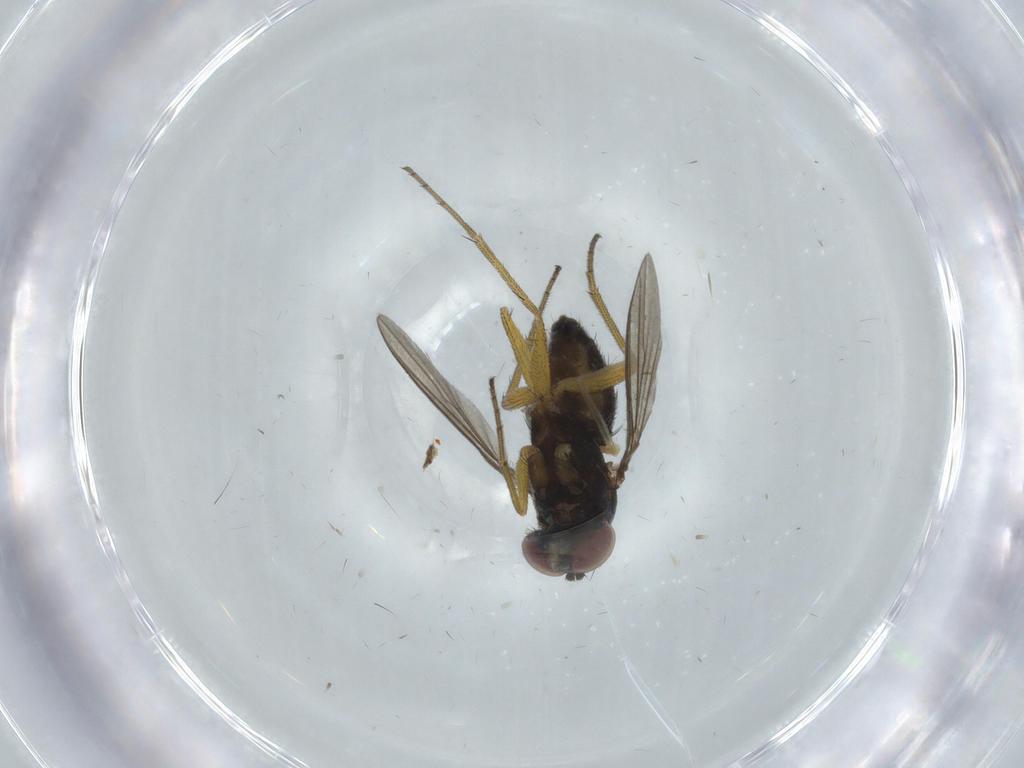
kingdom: Animalia
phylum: Arthropoda
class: Insecta
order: Diptera
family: Dolichopodidae
